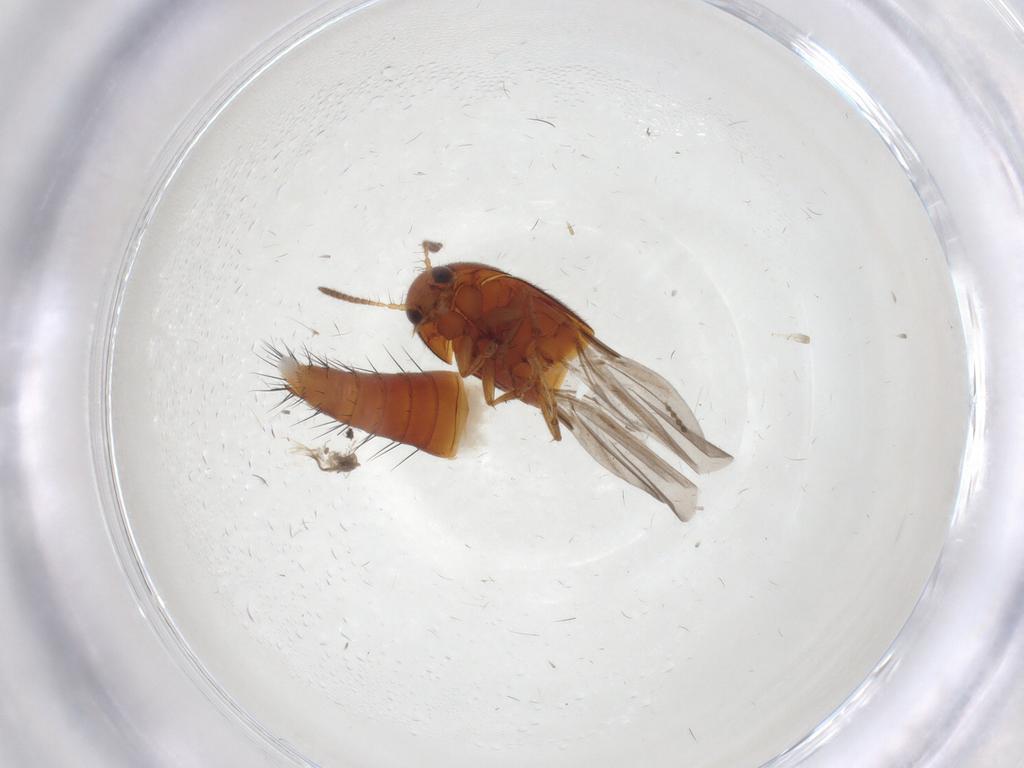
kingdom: Animalia
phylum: Arthropoda
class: Insecta
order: Coleoptera
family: Staphylinidae
